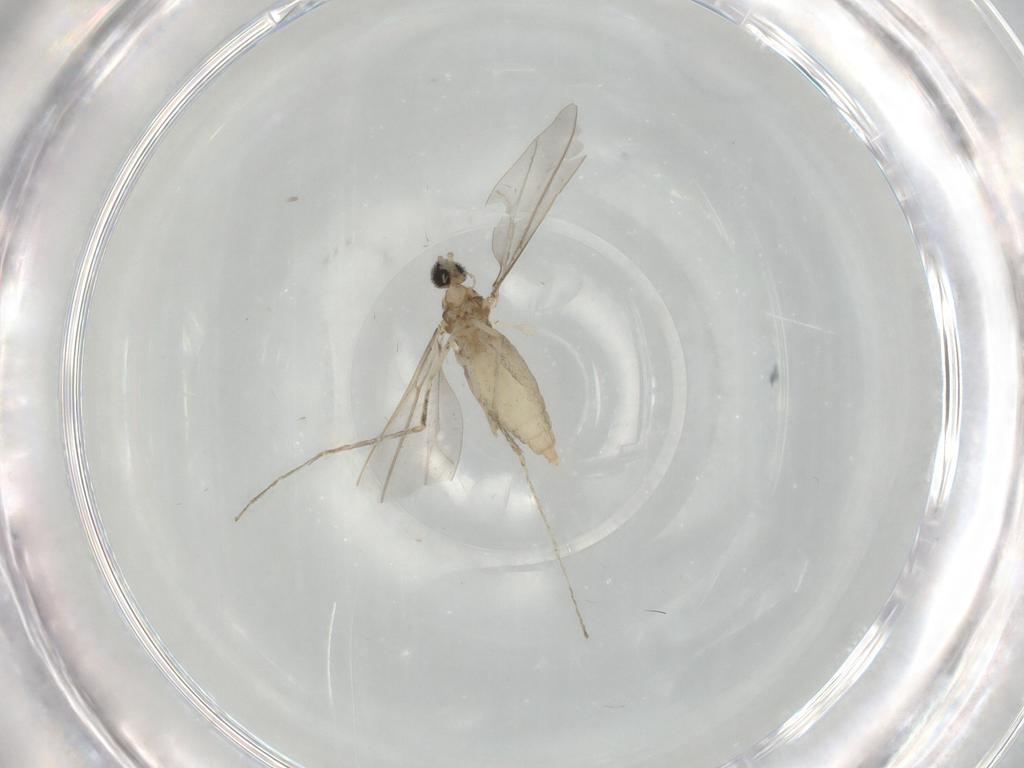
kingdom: Animalia
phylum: Arthropoda
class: Insecta
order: Diptera
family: Cecidomyiidae
